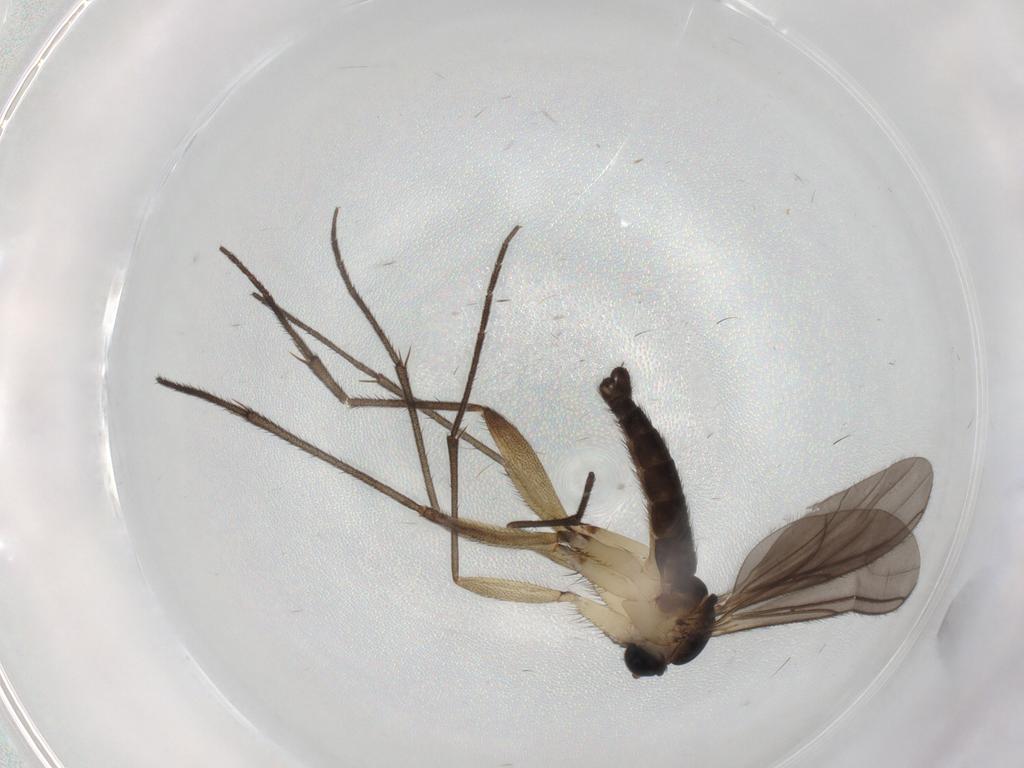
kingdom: Animalia
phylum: Arthropoda
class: Insecta
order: Diptera
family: Sciaridae
